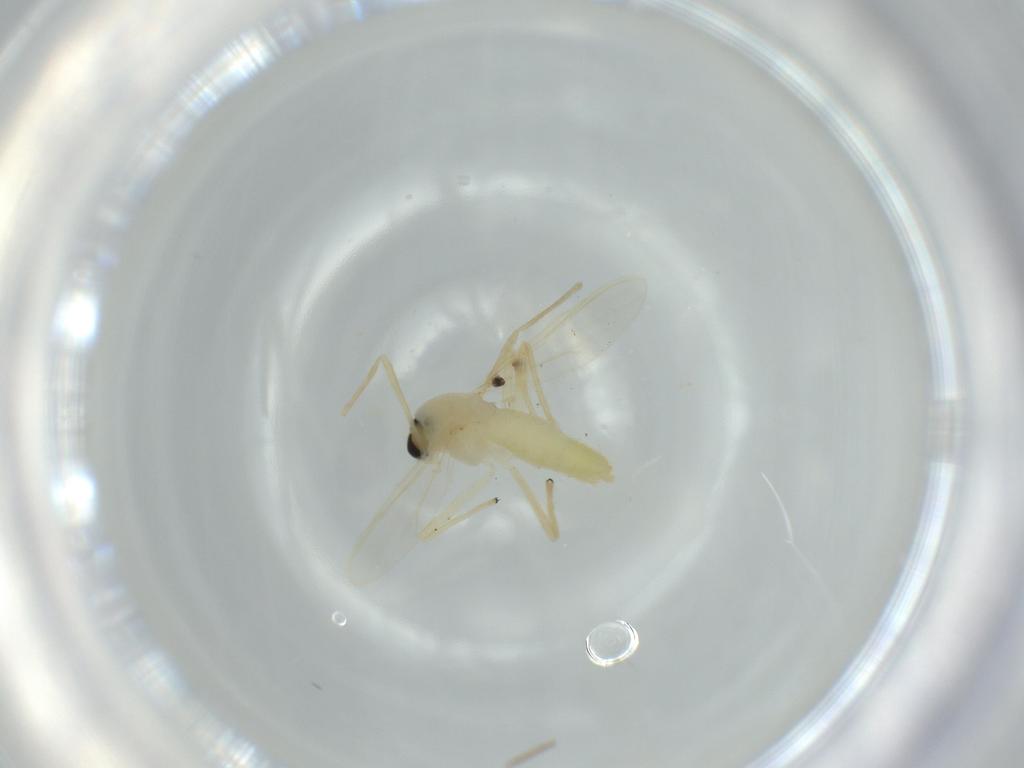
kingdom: Animalia
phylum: Arthropoda
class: Insecta
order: Diptera
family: Chironomidae
